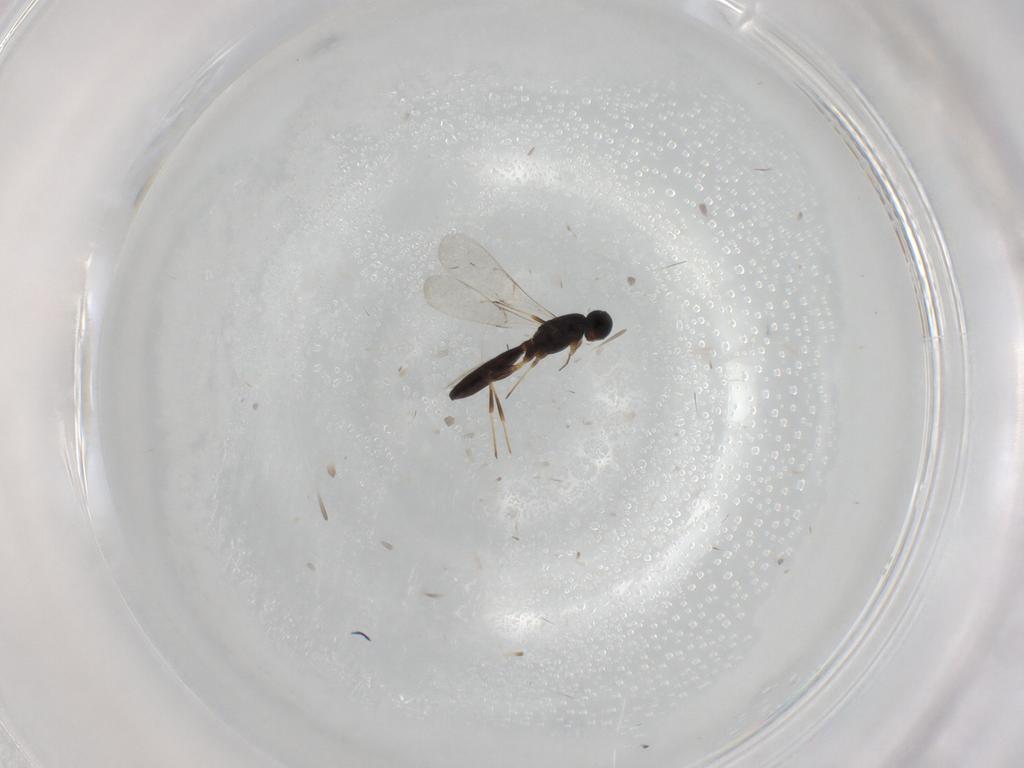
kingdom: Animalia
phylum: Arthropoda
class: Insecta
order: Hymenoptera
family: Scelionidae
